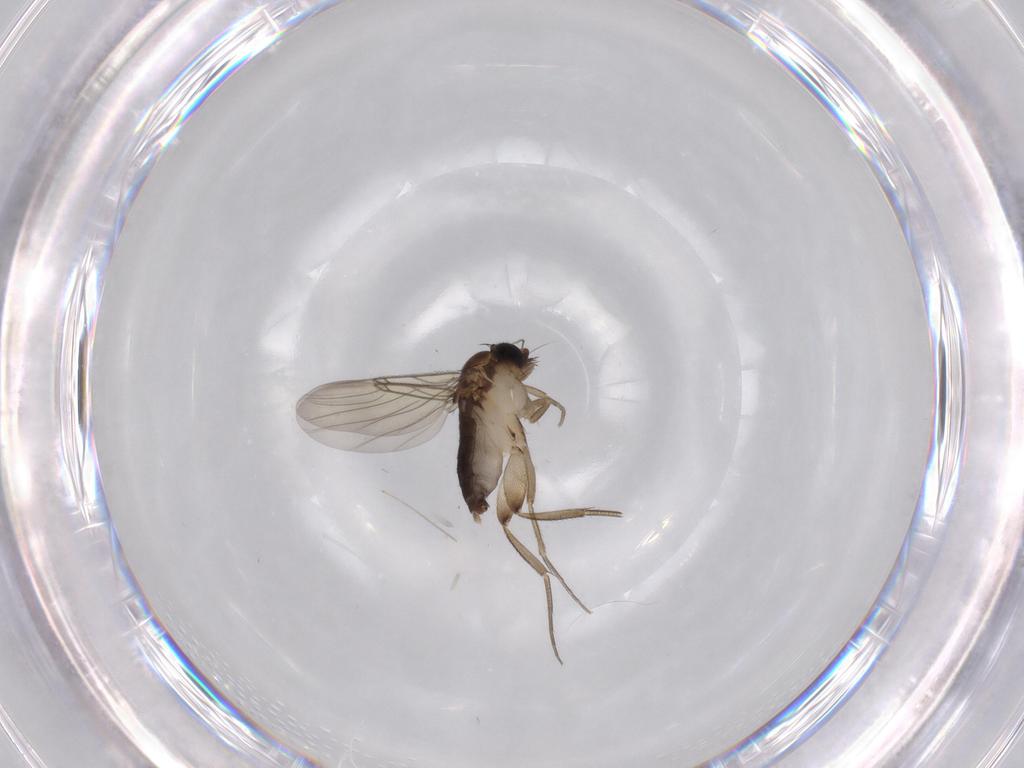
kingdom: Animalia
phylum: Arthropoda
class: Insecta
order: Diptera
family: Phoridae
